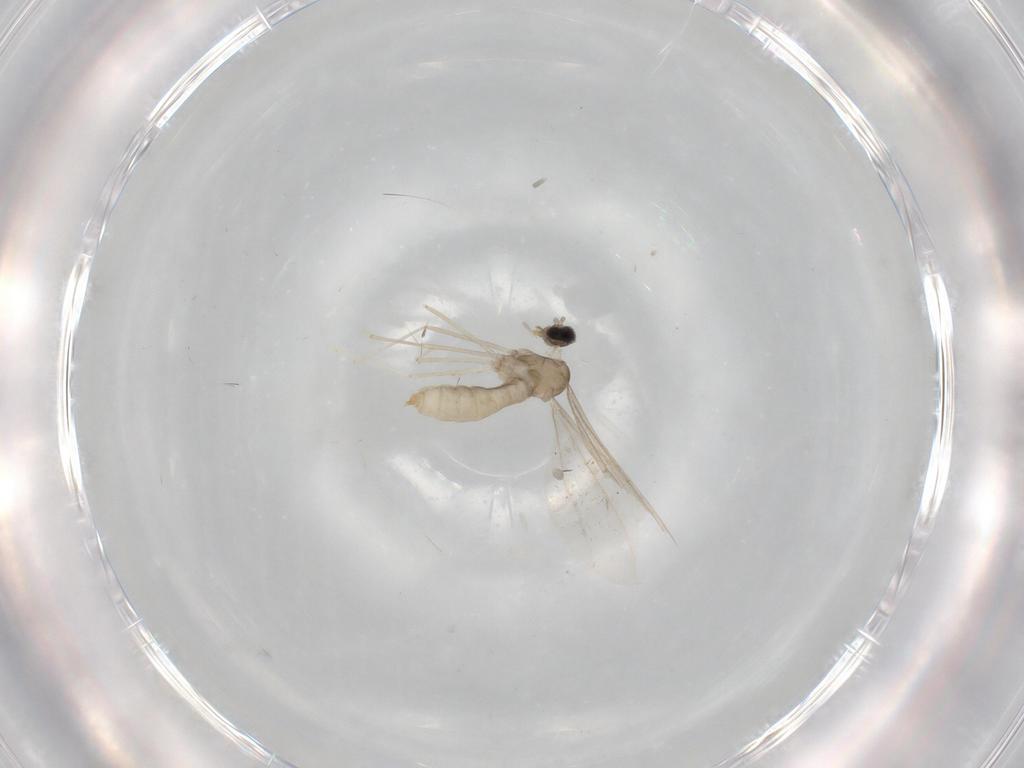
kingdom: Animalia
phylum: Arthropoda
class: Insecta
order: Diptera
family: Cecidomyiidae
